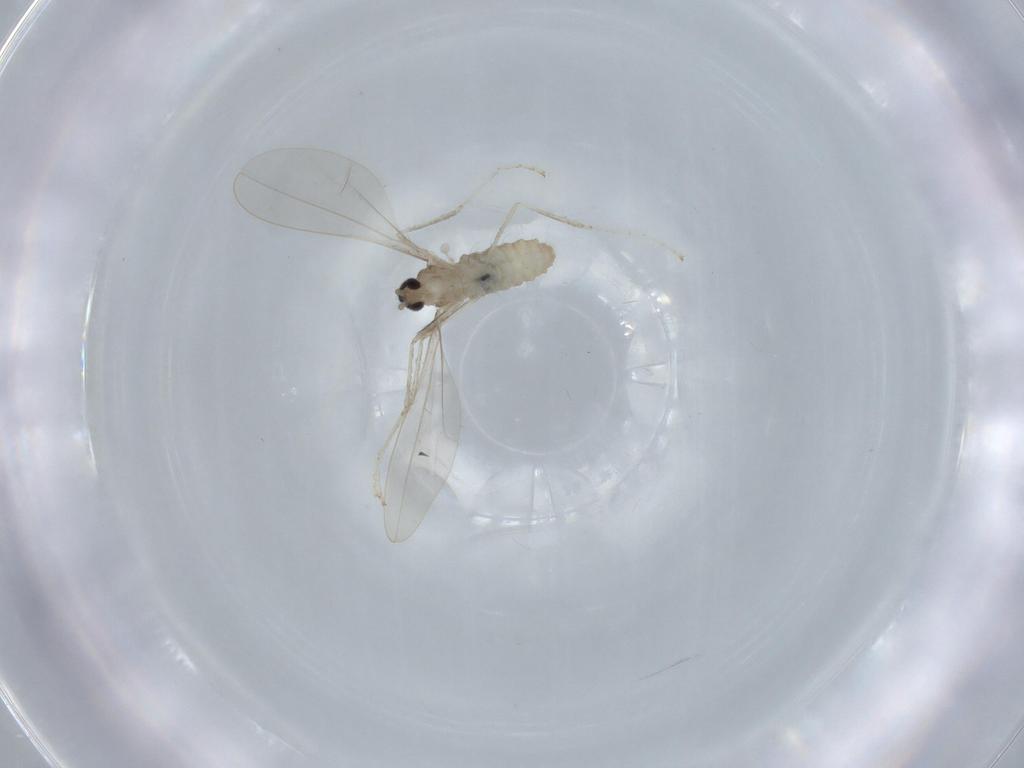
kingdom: Animalia
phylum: Arthropoda
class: Insecta
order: Diptera
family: Cecidomyiidae
